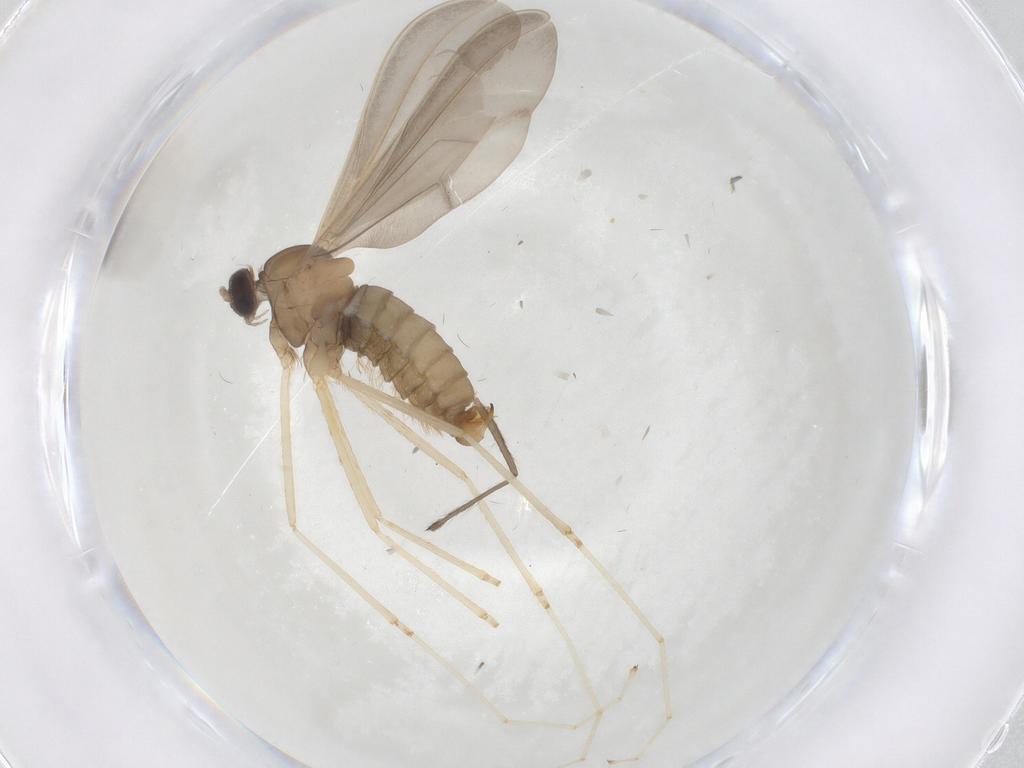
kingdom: Animalia
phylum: Arthropoda
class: Insecta
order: Diptera
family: Cecidomyiidae
